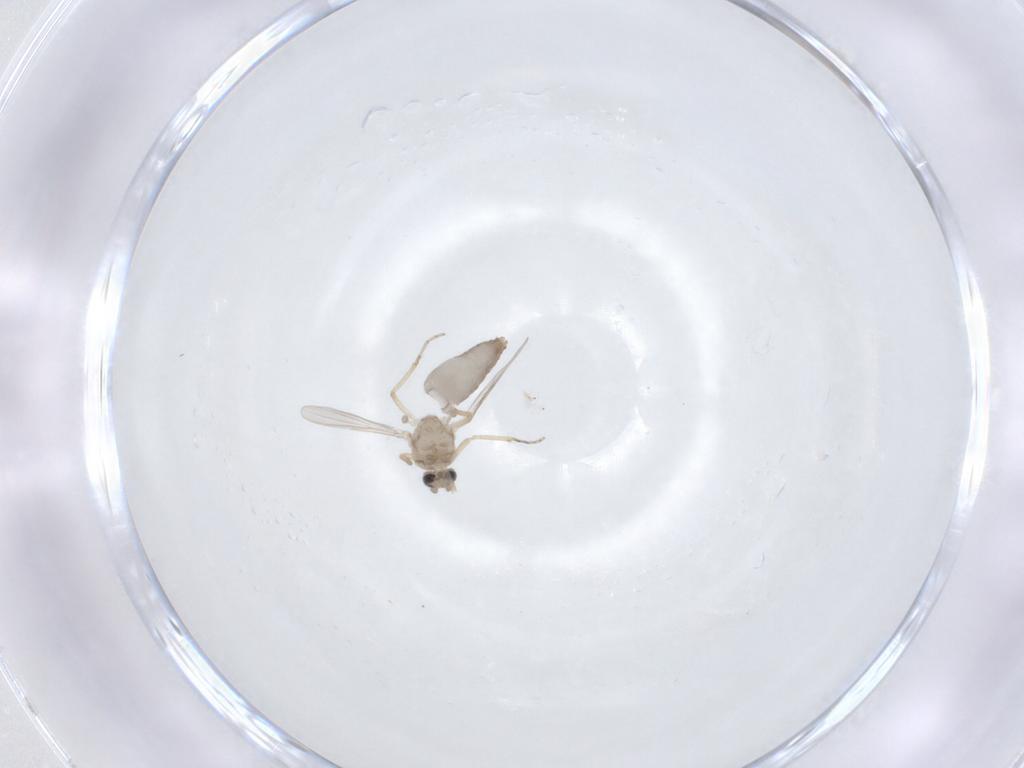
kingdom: Animalia
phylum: Arthropoda
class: Insecta
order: Diptera
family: Ceratopogonidae
